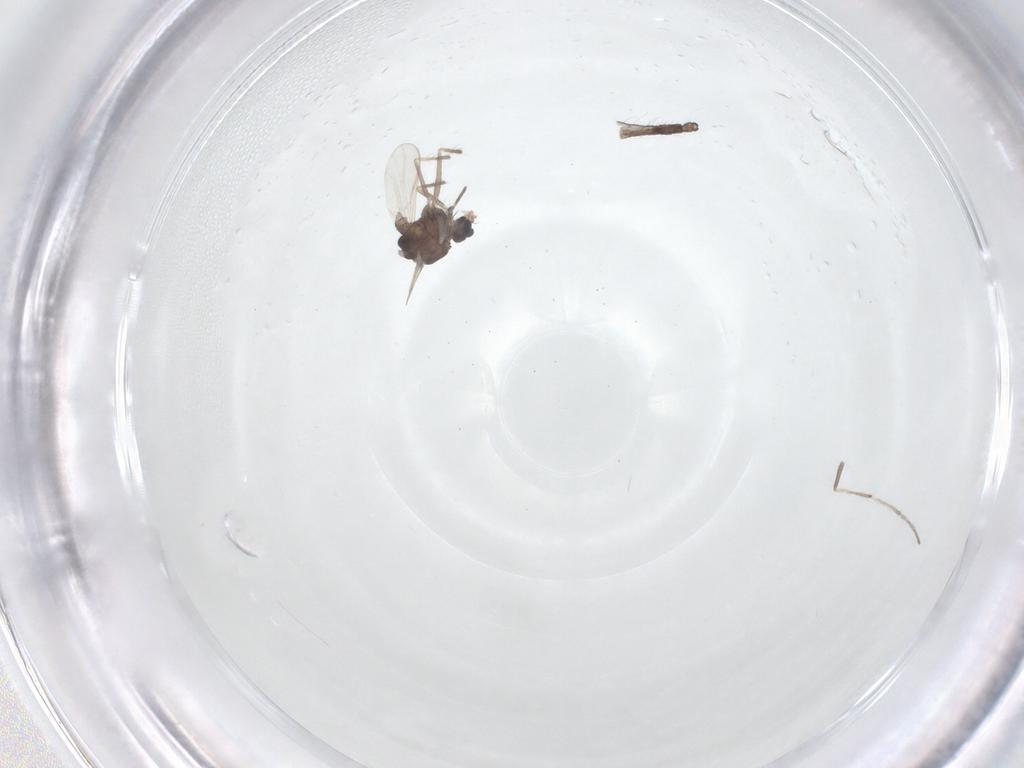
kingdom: Animalia
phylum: Arthropoda
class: Insecta
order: Diptera
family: Chironomidae
